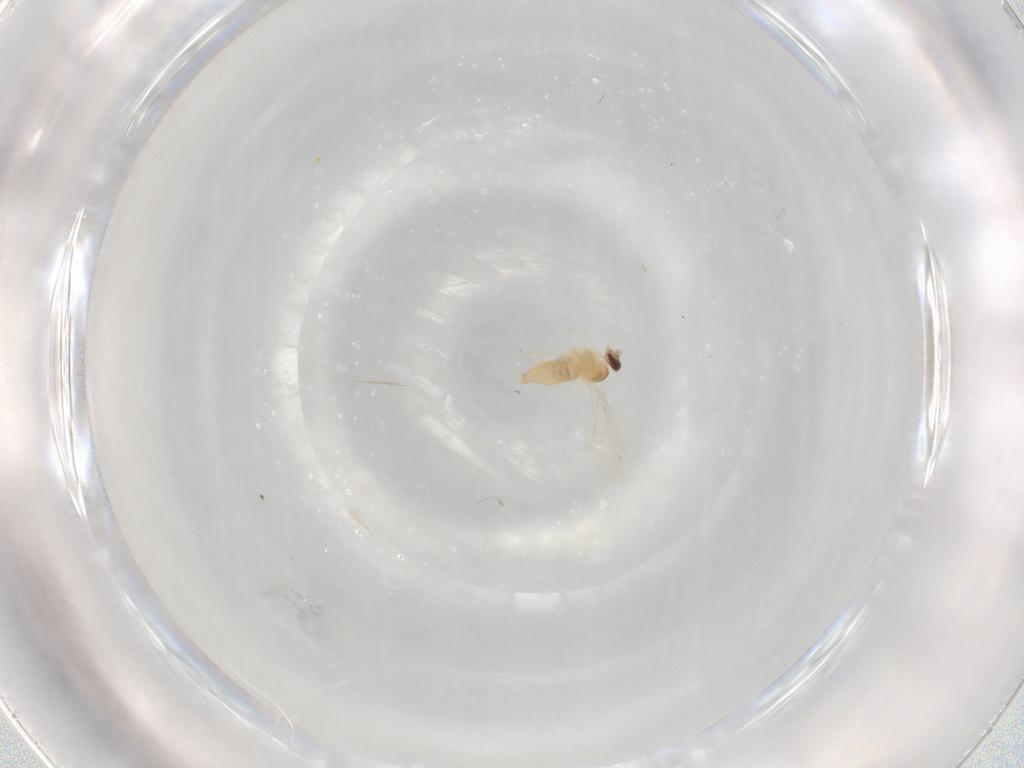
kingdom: Animalia
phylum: Arthropoda
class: Insecta
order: Diptera
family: Cecidomyiidae
